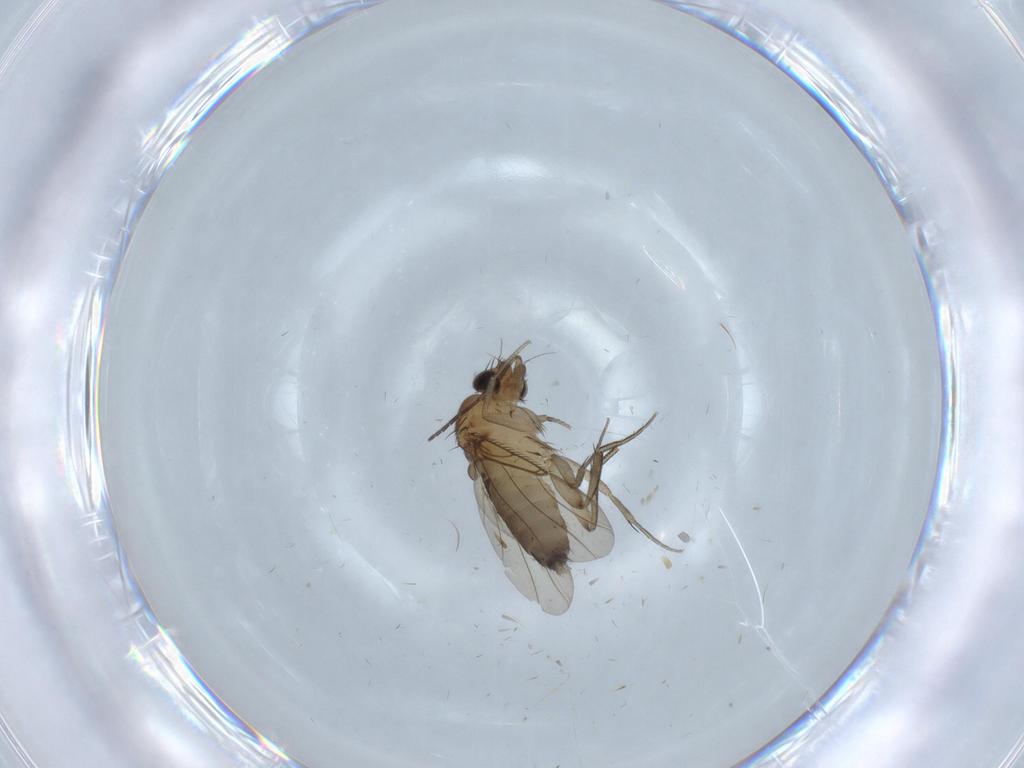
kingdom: Animalia
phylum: Arthropoda
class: Insecta
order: Diptera
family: Phoridae
